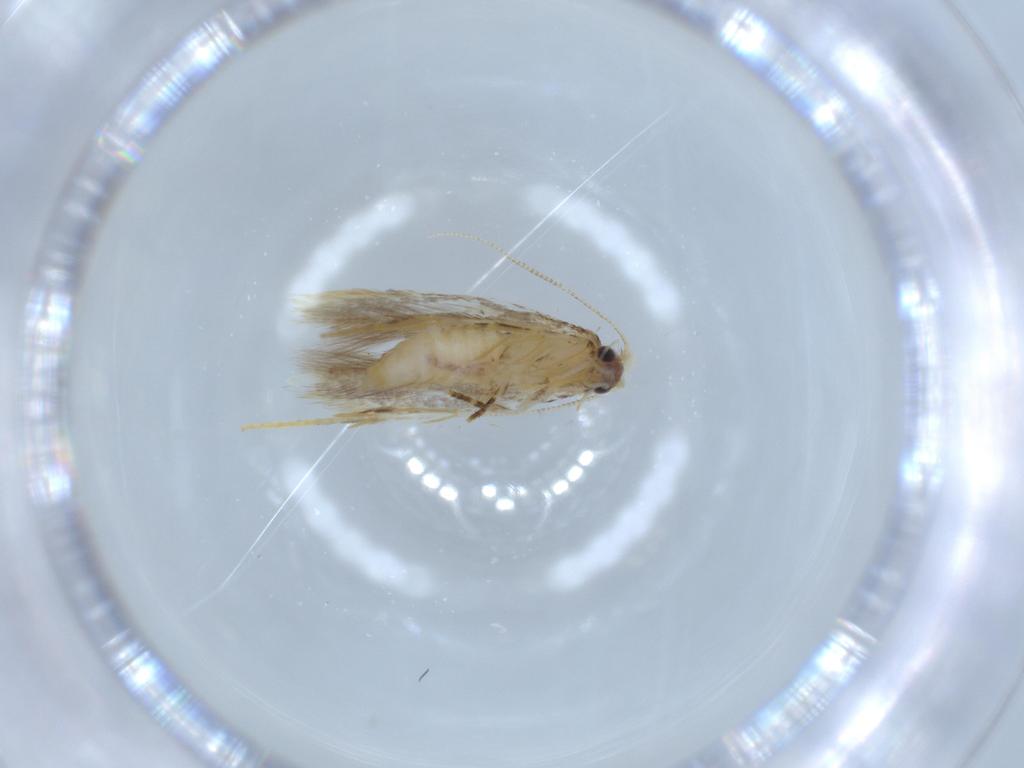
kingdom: Animalia
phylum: Arthropoda
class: Insecta
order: Lepidoptera
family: Tineidae
